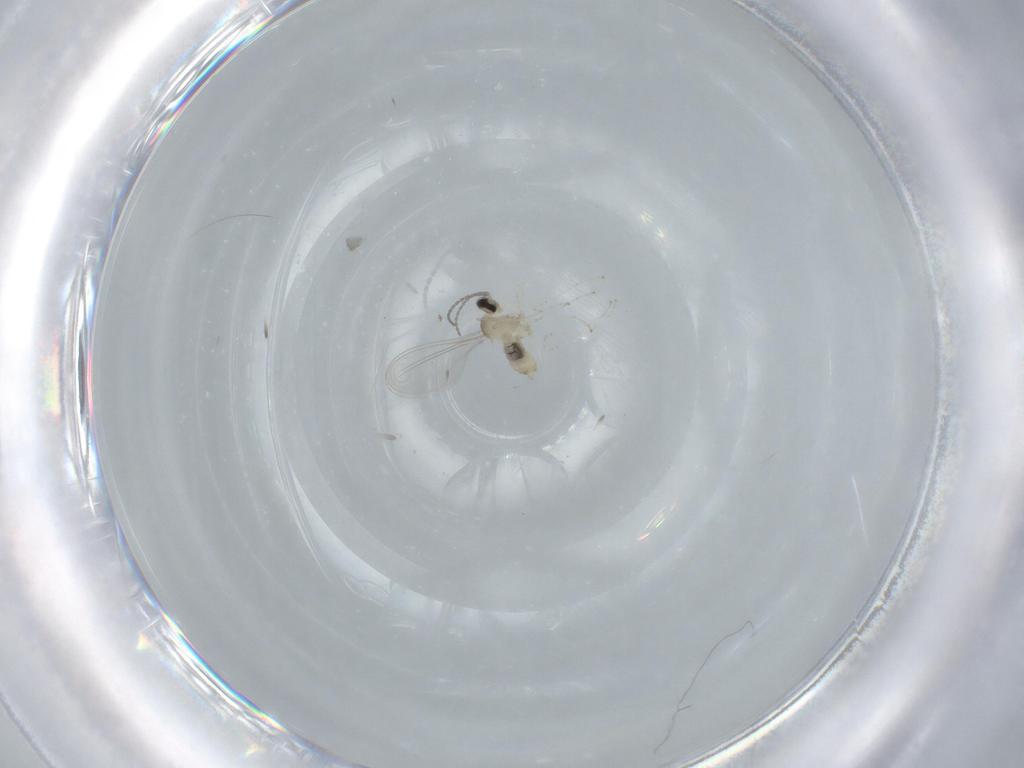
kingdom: Animalia
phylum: Arthropoda
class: Insecta
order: Diptera
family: Cecidomyiidae
